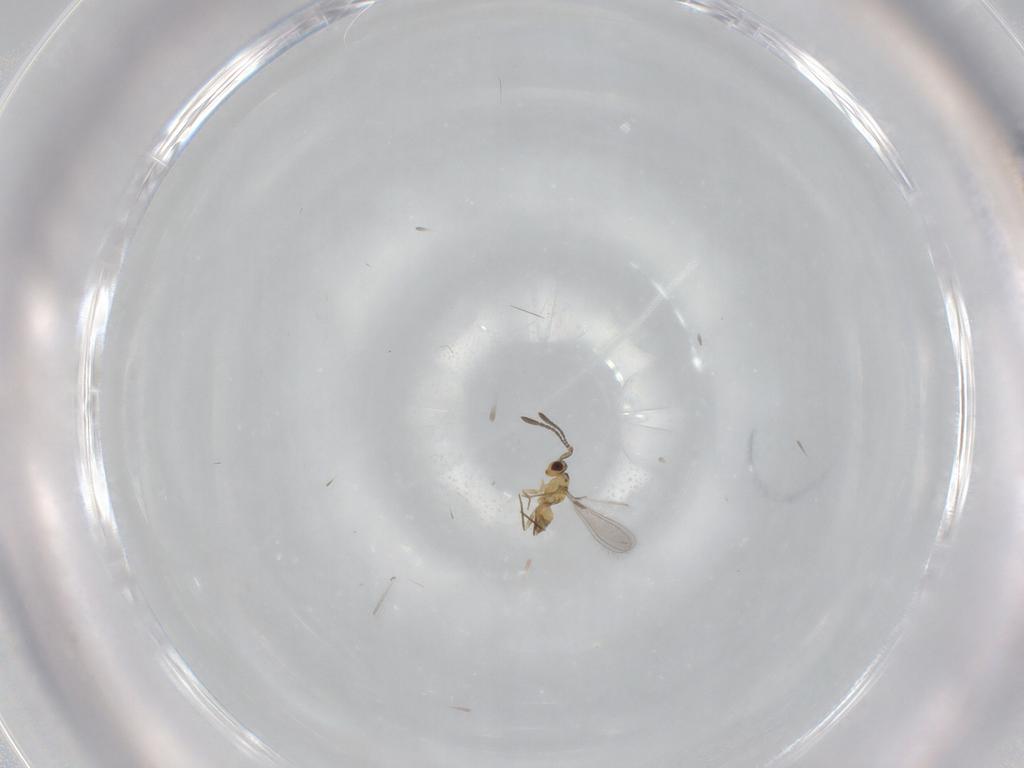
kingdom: Animalia
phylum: Arthropoda
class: Insecta
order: Hymenoptera
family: Mymaridae
